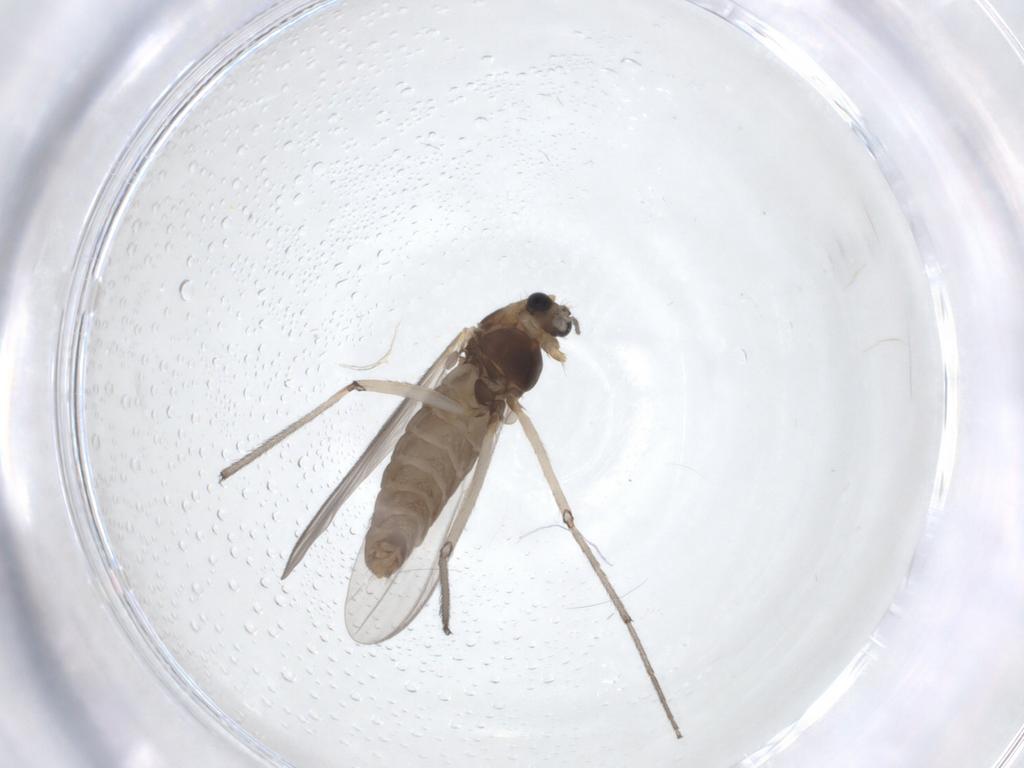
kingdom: Animalia
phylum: Arthropoda
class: Insecta
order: Diptera
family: Chironomidae
